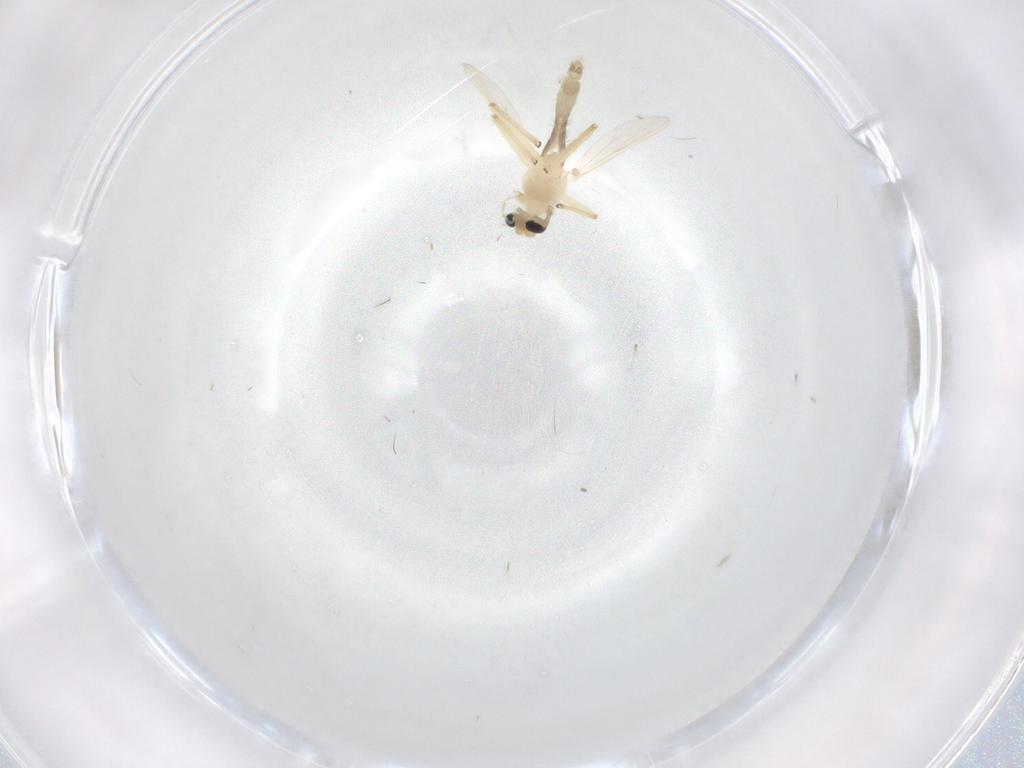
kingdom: Animalia
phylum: Arthropoda
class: Insecta
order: Diptera
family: Chironomidae
